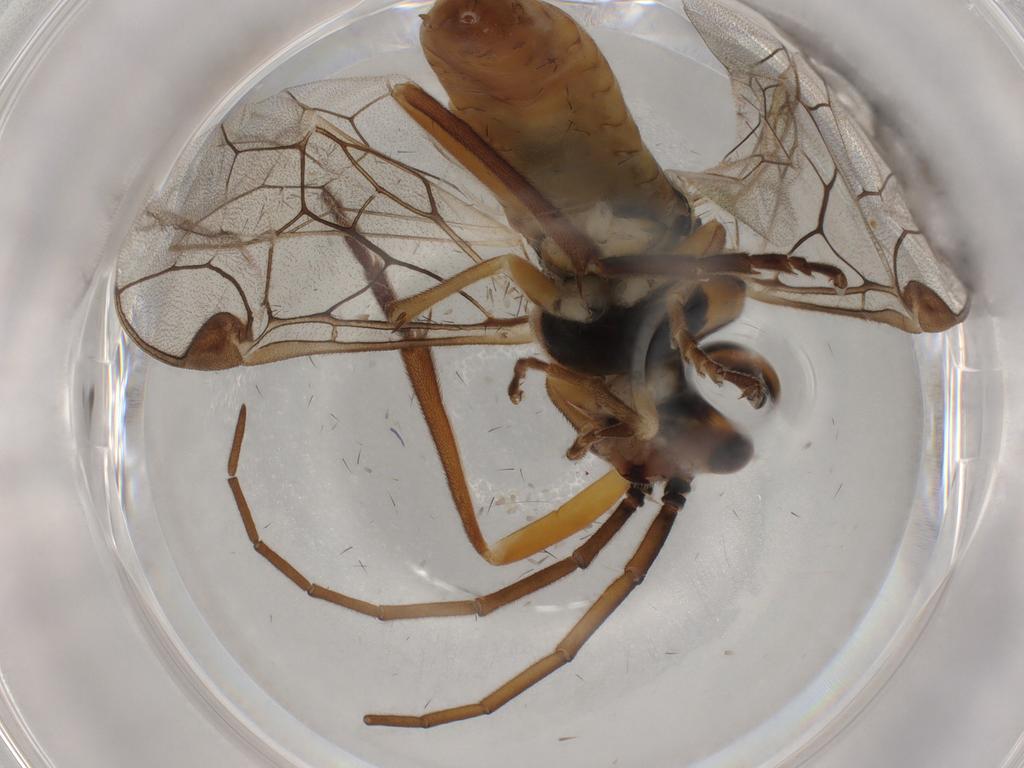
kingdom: Animalia
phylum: Arthropoda
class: Insecta
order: Hymenoptera
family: Tenthredinidae
